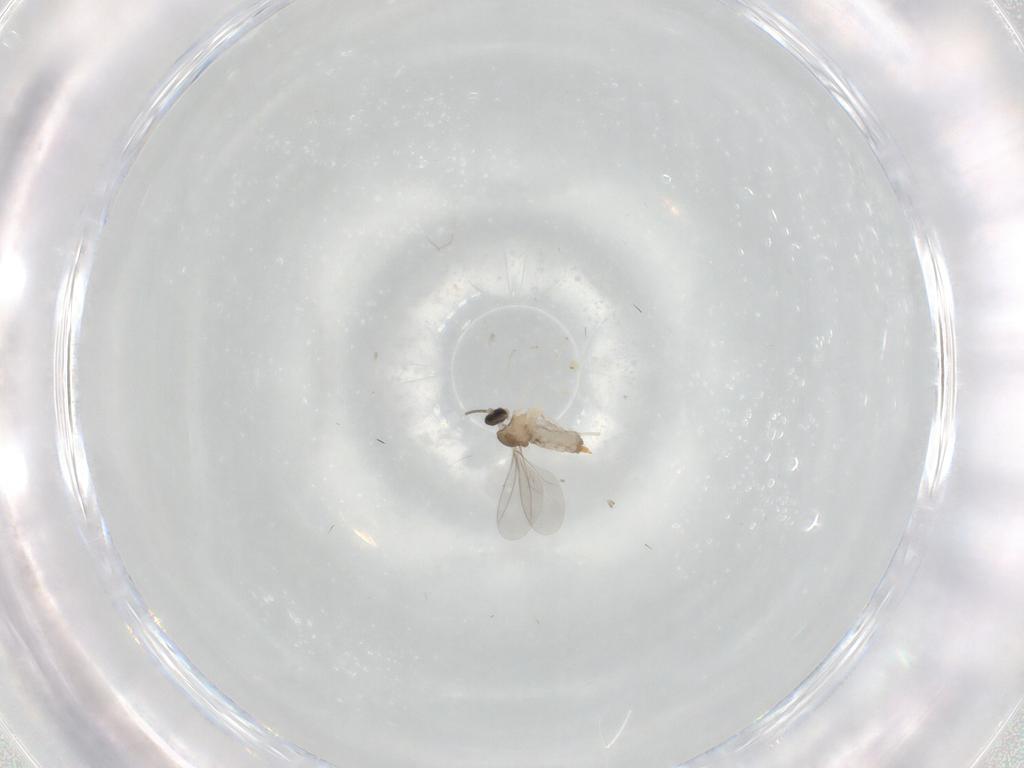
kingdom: Animalia
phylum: Arthropoda
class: Insecta
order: Diptera
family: Cecidomyiidae
